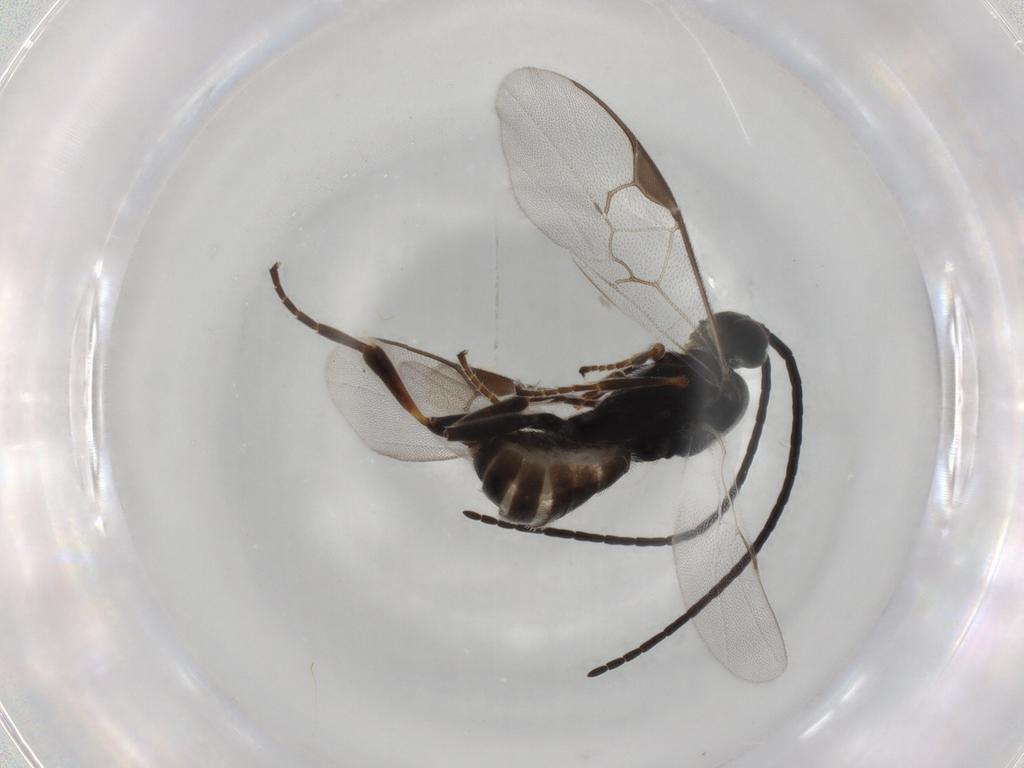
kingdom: Animalia
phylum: Arthropoda
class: Insecta
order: Hymenoptera
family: Braconidae
